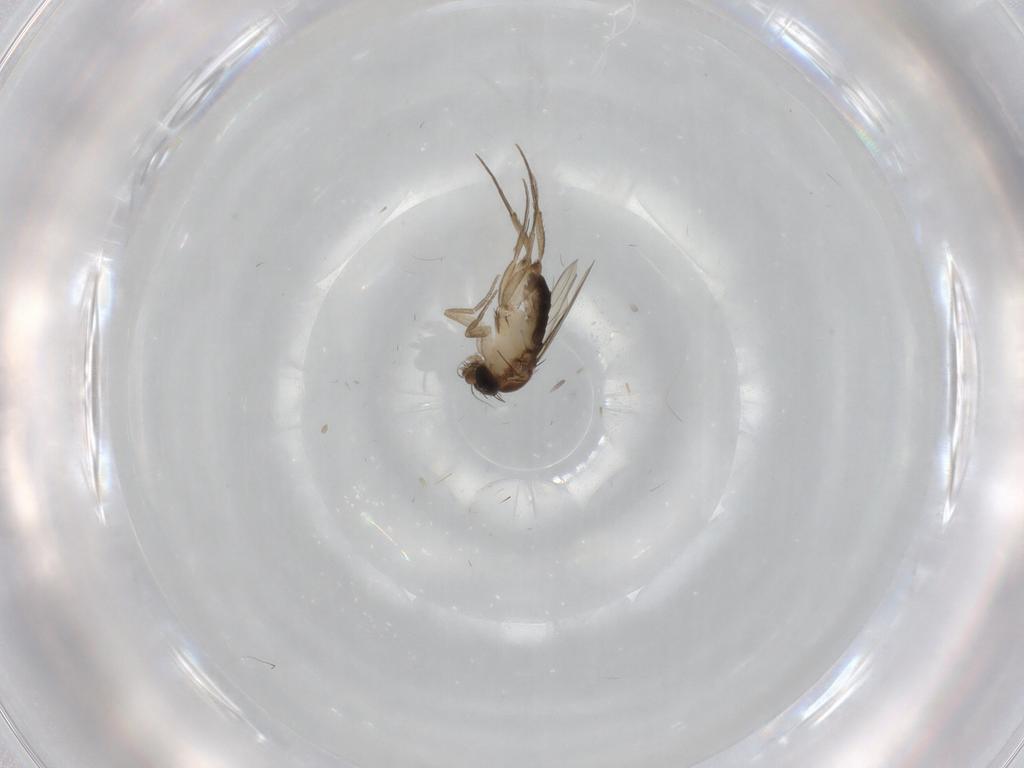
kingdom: Animalia
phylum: Arthropoda
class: Insecta
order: Diptera
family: Phoridae
